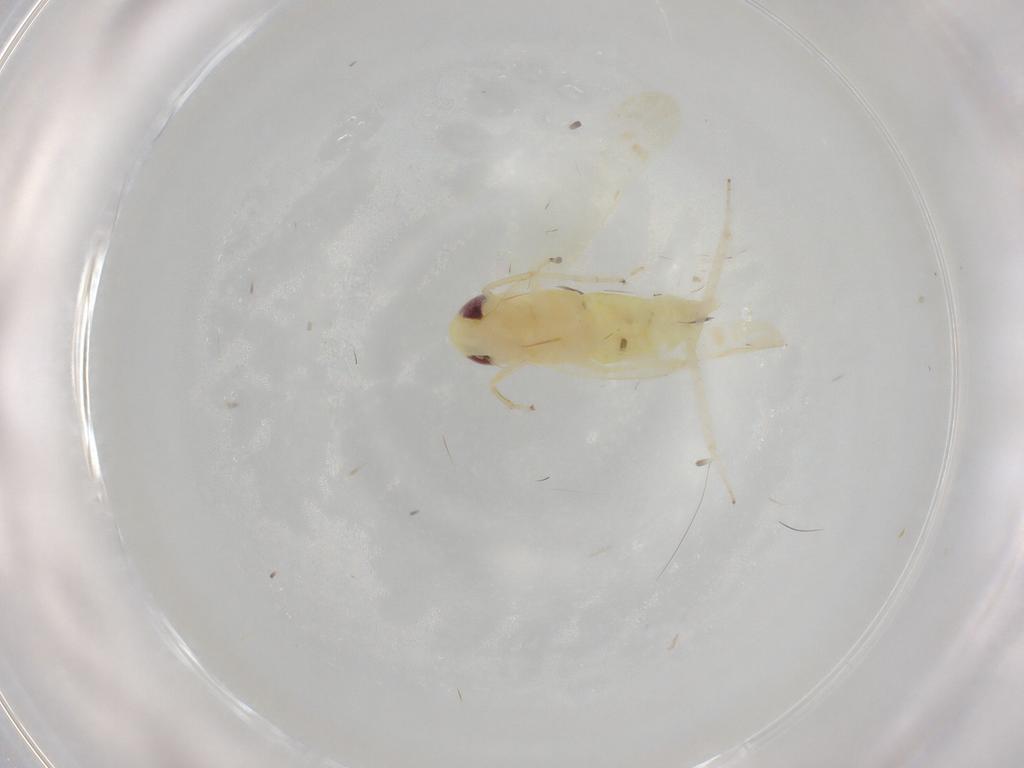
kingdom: Animalia
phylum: Arthropoda
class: Insecta
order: Hemiptera
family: Cicadellidae
